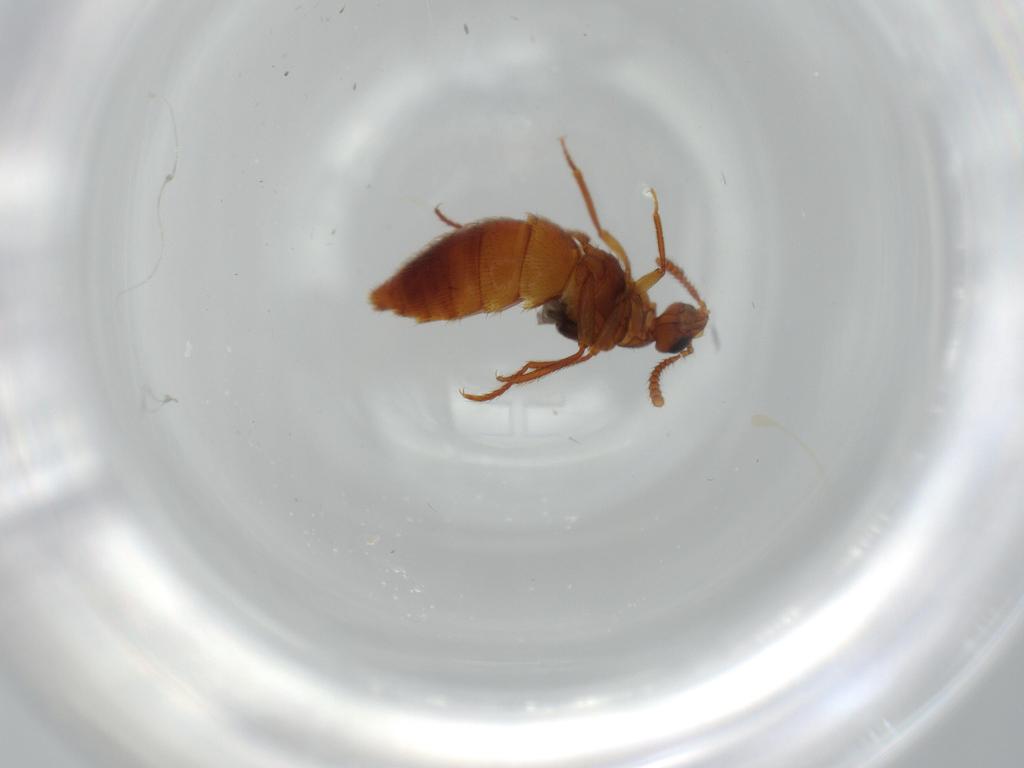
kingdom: Animalia
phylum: Arthropoda
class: Insecta
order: Coleoptera
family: Staphylinidae
